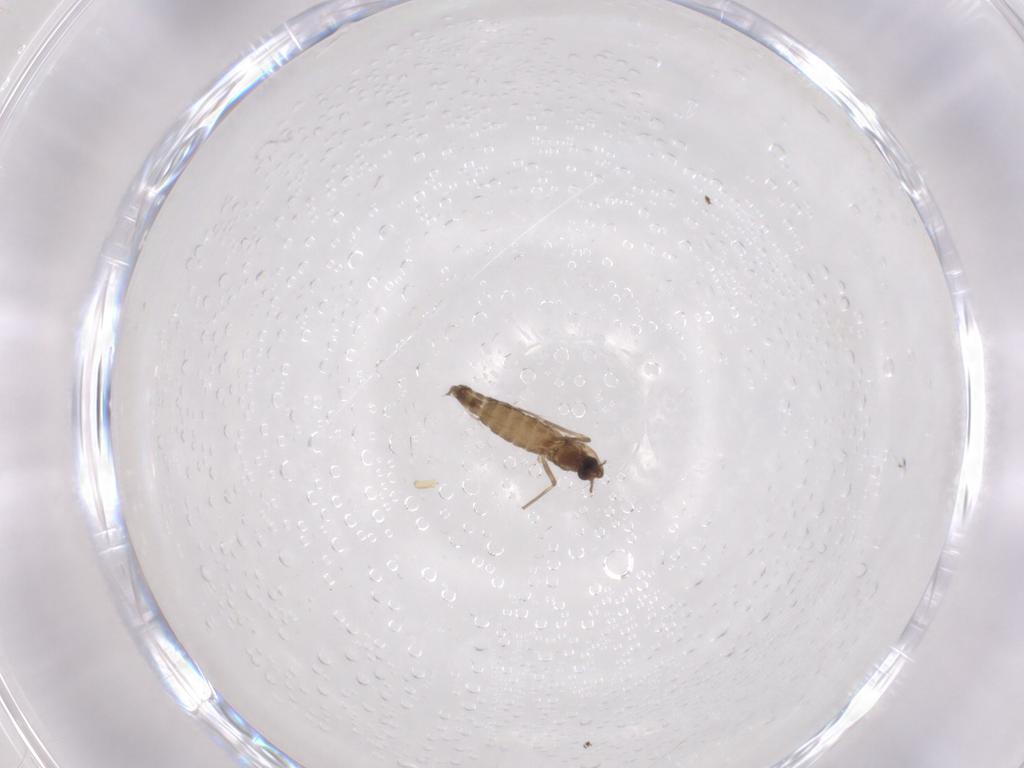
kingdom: Animalia
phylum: Arthropoda
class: Insecta
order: Diptera
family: Chironomidae
